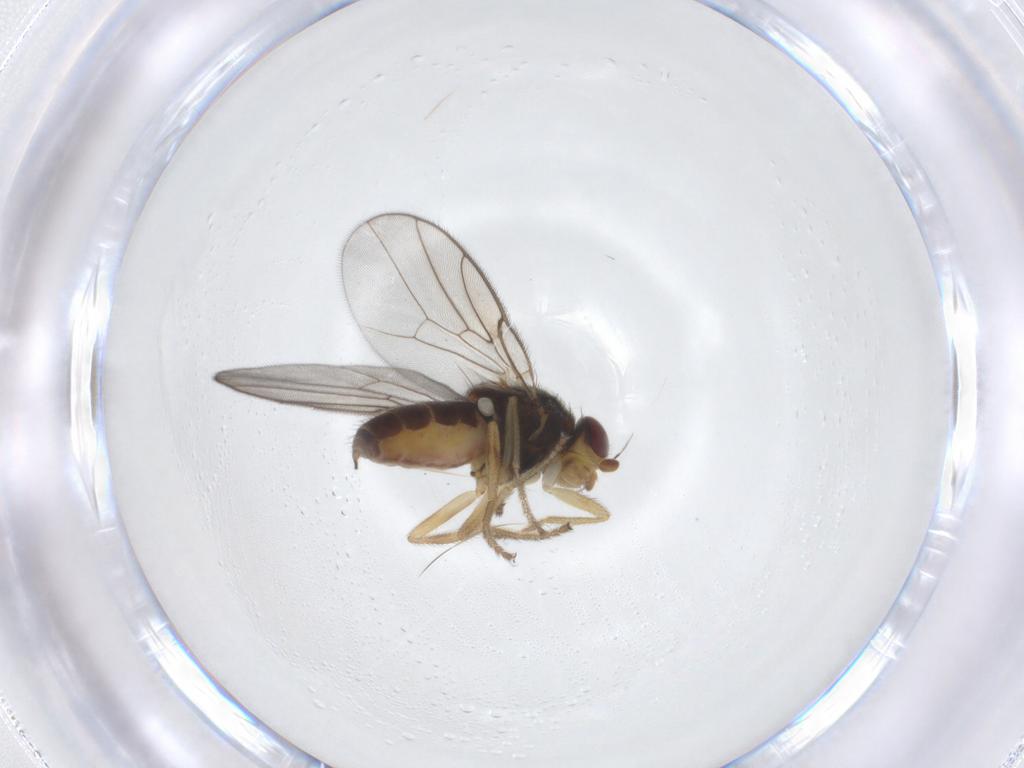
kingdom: Animalia
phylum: Arthropoda
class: Insecta
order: Diptera
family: Chloropidae
